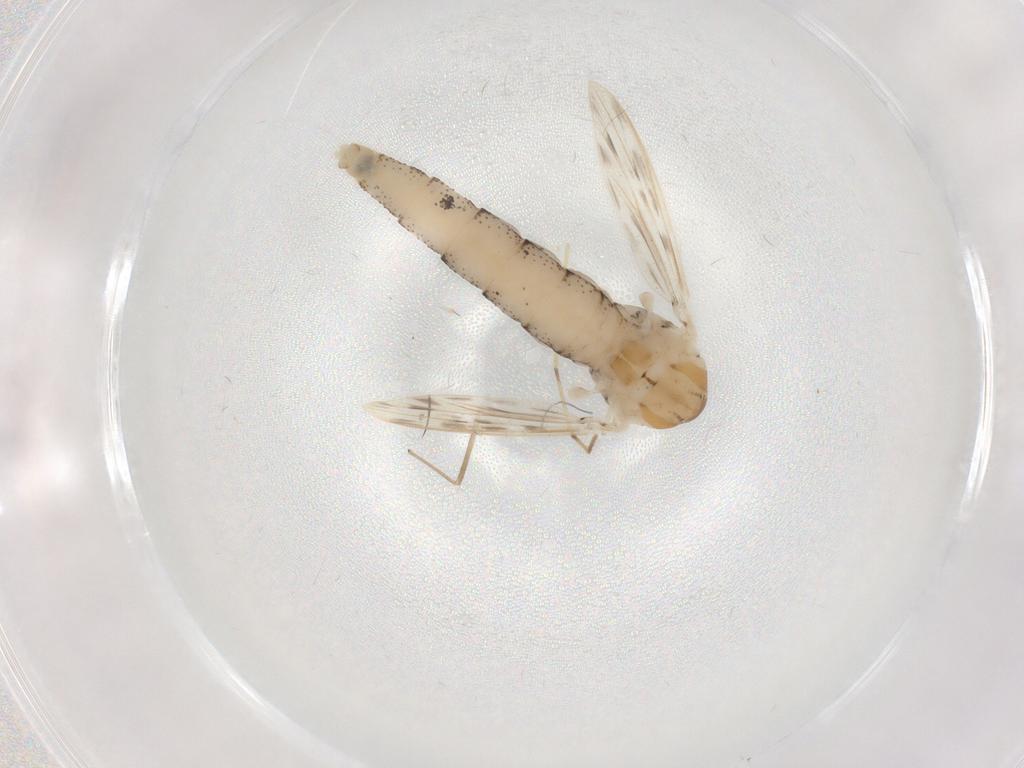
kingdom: Animalia
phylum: Arthropoda
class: Insecta
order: Diptera
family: Chaoboridae
